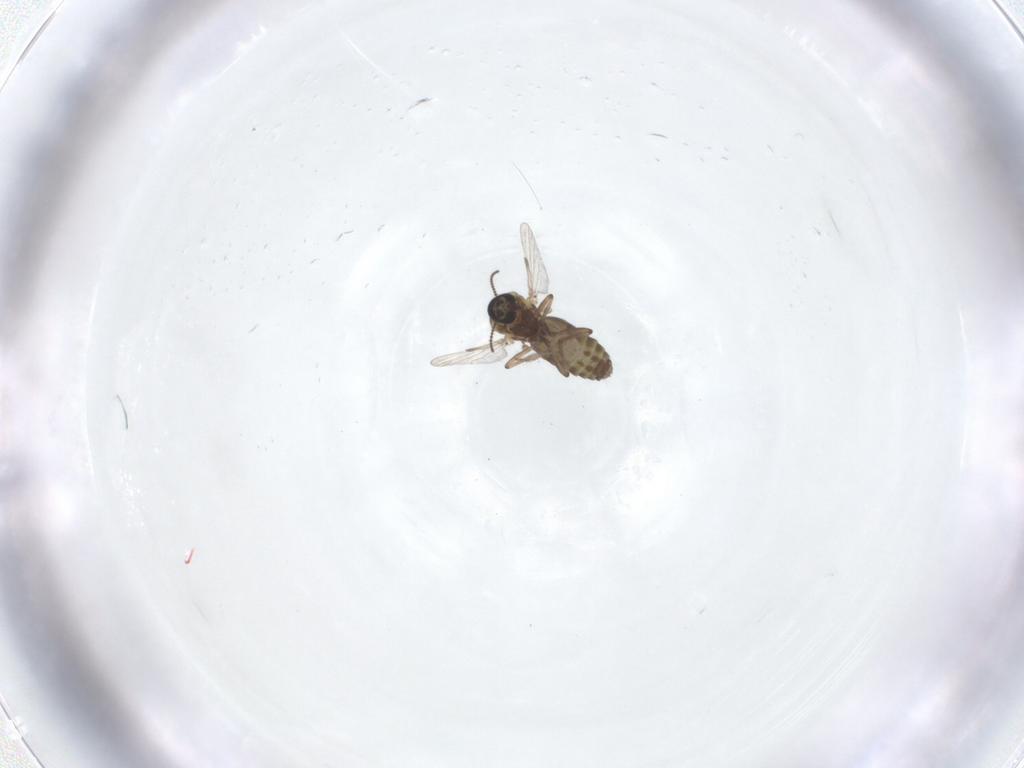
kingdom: Animalia
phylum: Arthropoda
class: Insecta
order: Diptera
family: Ceratopogonidae
